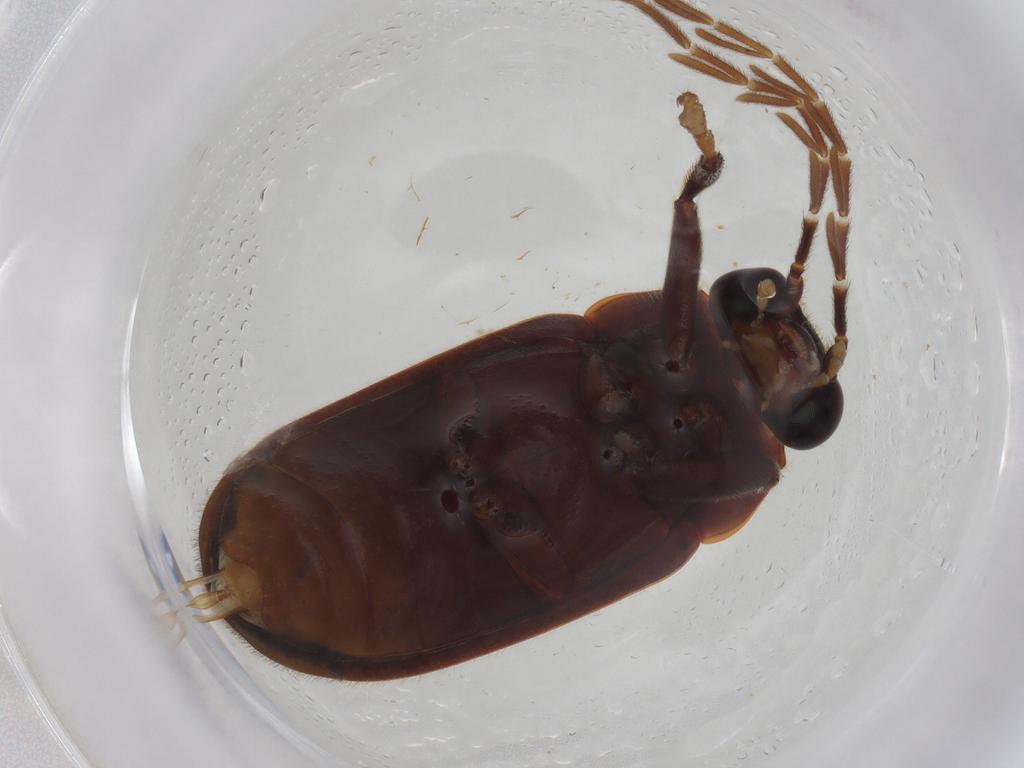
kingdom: Animalia
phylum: Arthropoda
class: Insecta
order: Coleoptera
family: Ptilodactylidae
